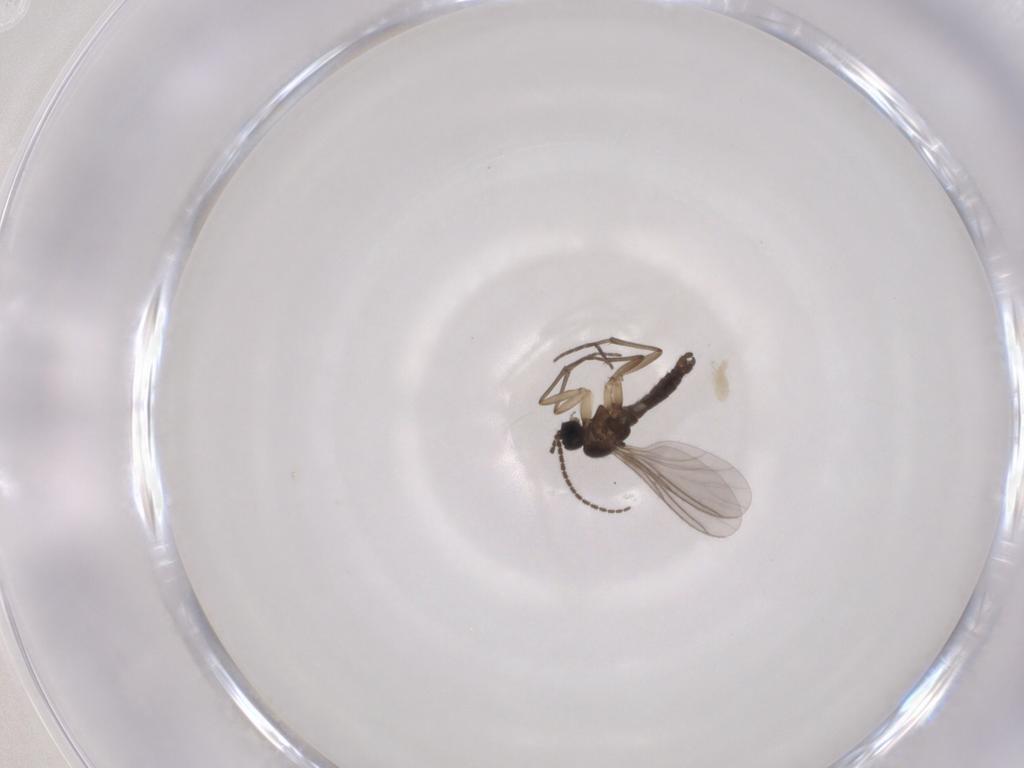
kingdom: Animalia
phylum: Arthropoda
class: Insecta
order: Diptera
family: Sciaridae
